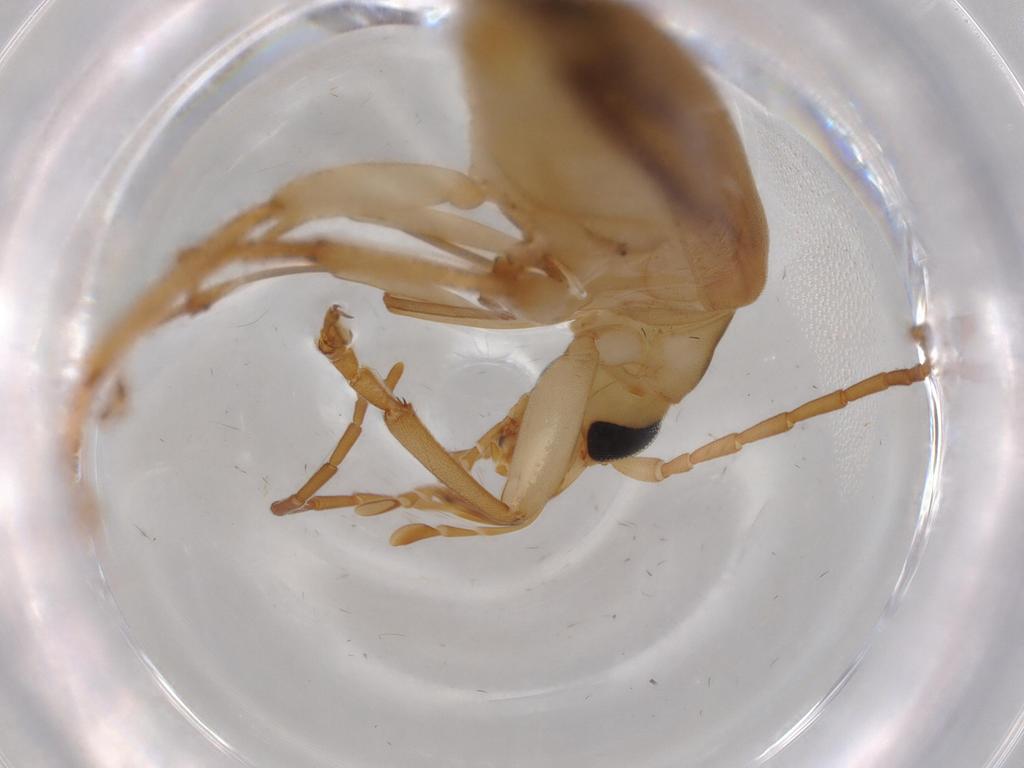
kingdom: Animalia
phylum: Arthropoda
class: Insecta
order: Coleoptera
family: Oedemeridae
